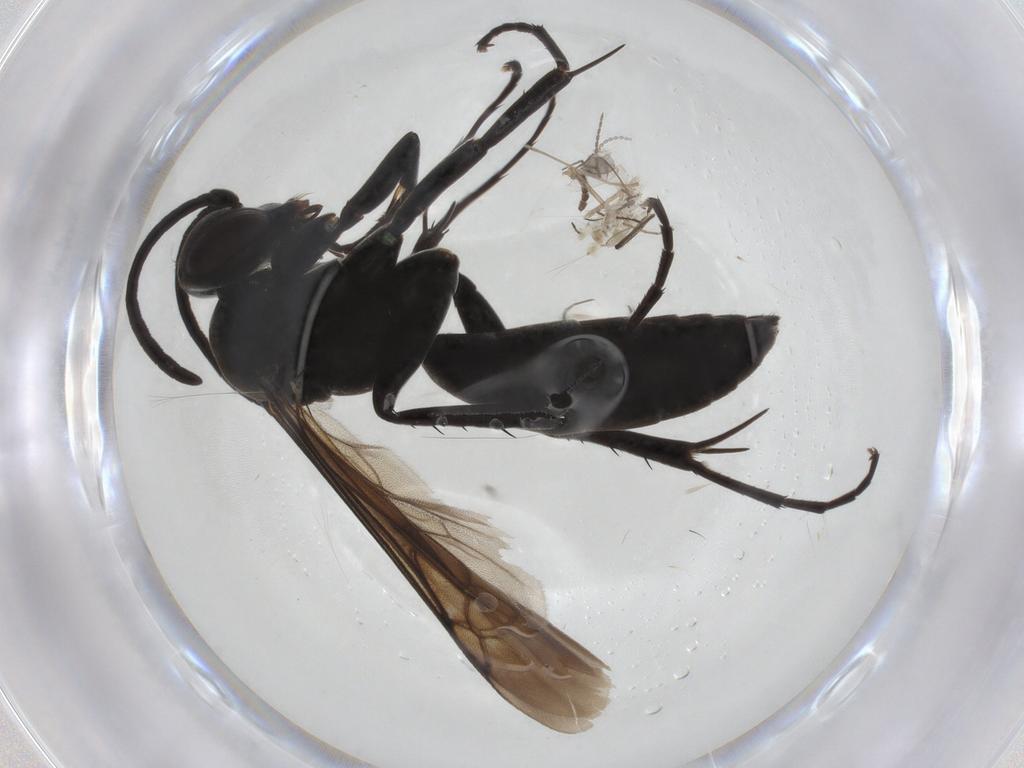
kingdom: Animalia
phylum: Arthropoda
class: Insecta
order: Hymenoptera
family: Pompilidae
